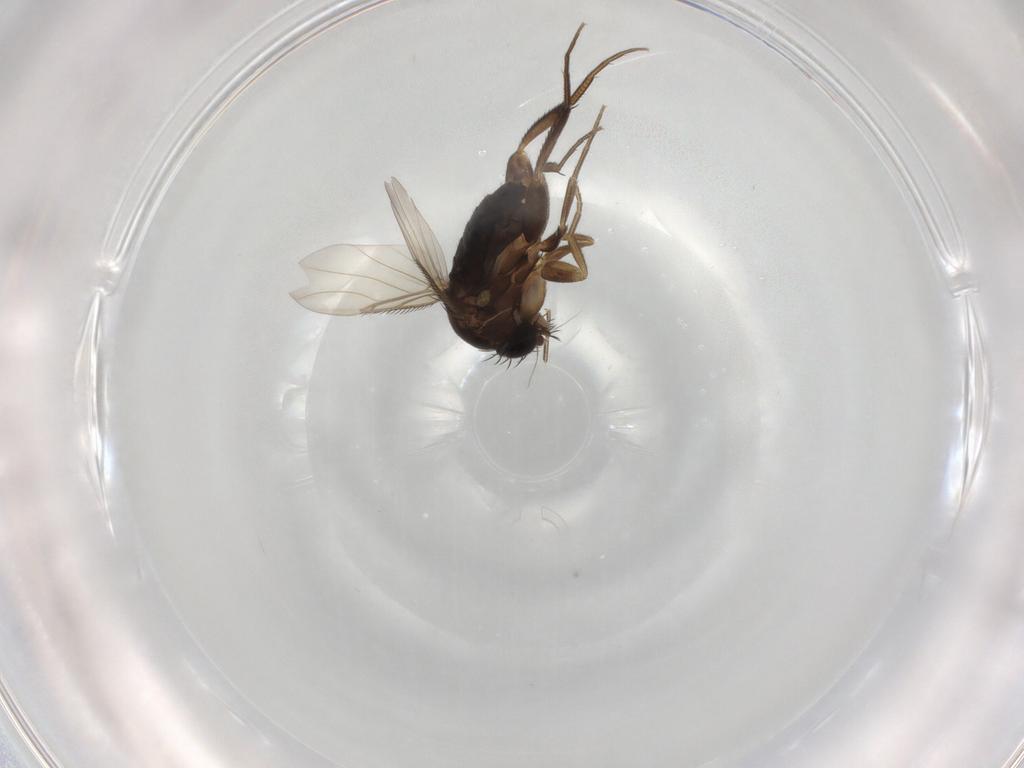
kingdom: Animalia
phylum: Arthropoda
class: Insecta
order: Diptera
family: Phoridae
